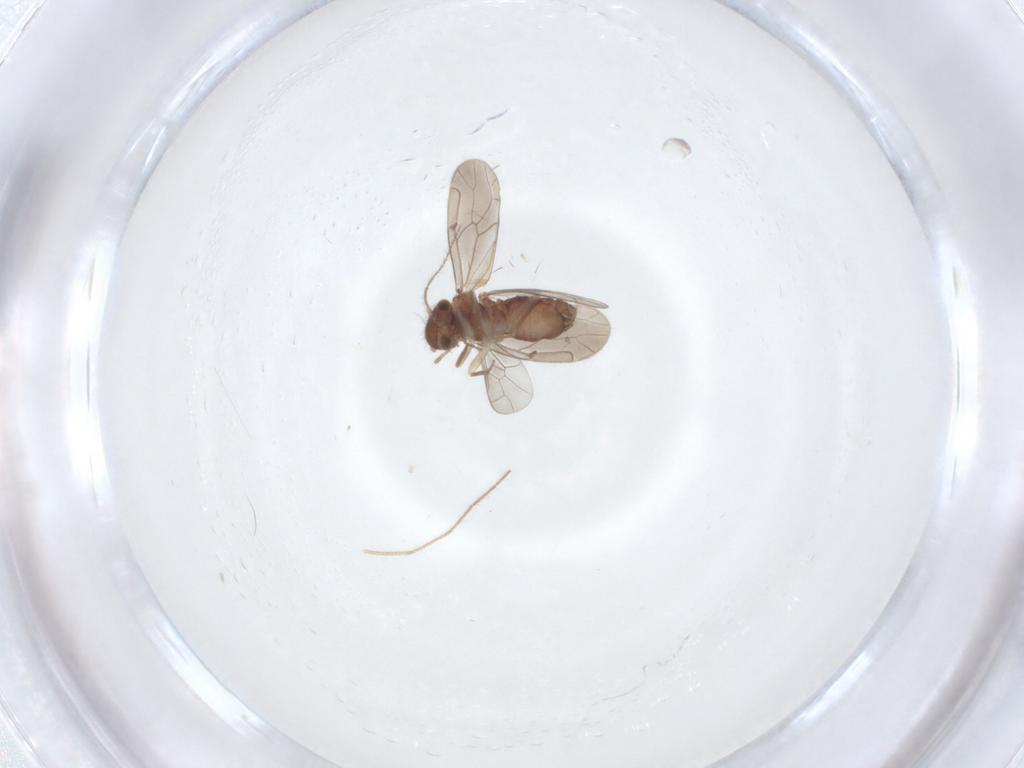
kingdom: Animalia
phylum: Arthropoda
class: Insecta
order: Psocodea
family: Caeciliusidae
